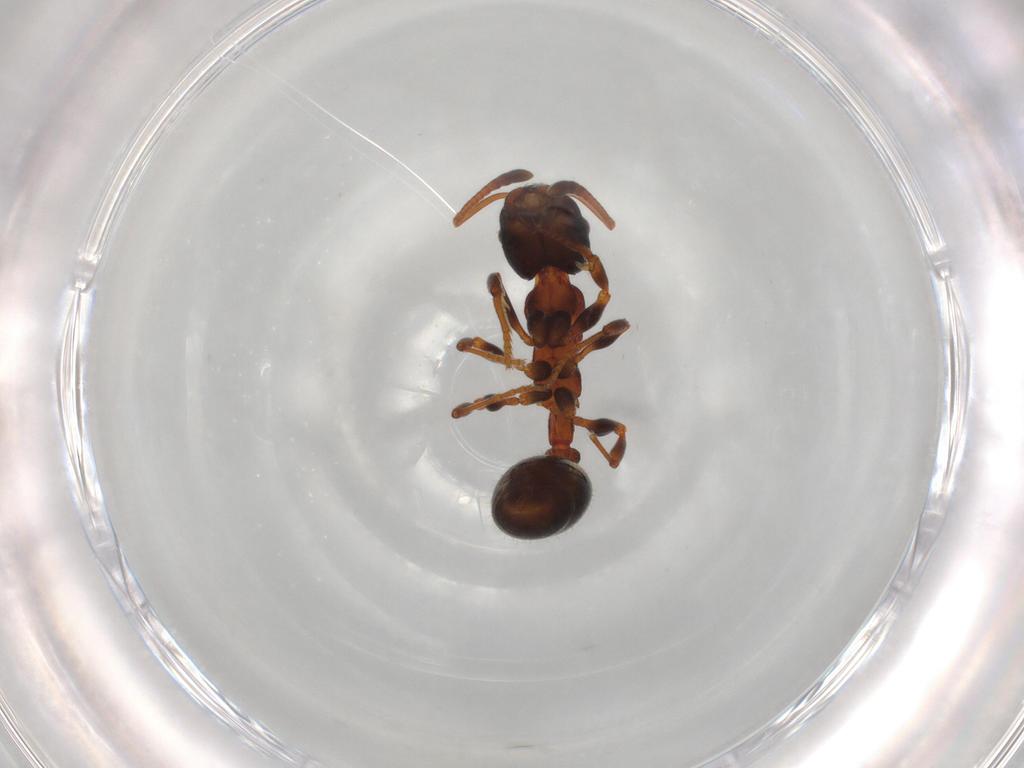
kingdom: Animalia
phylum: Arthropoda
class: Insecta
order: Hymenoptera
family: Formicidae
